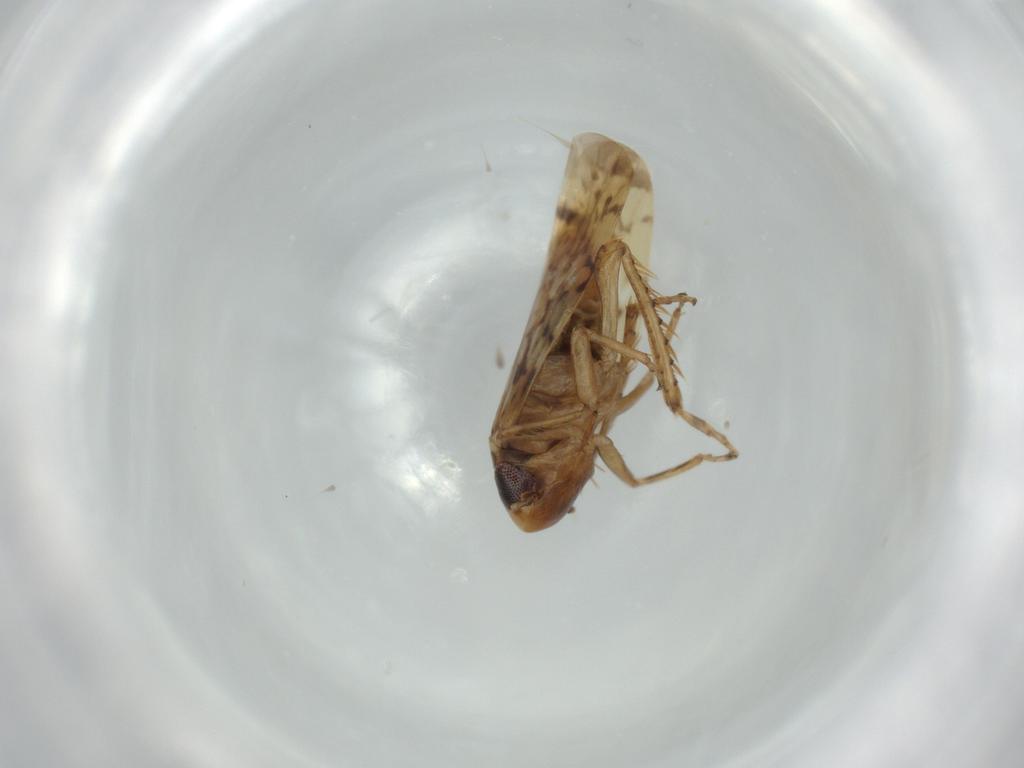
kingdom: Animalia
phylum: Arthropoda
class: Insecta
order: Hemiptera
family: Cicadellidae
